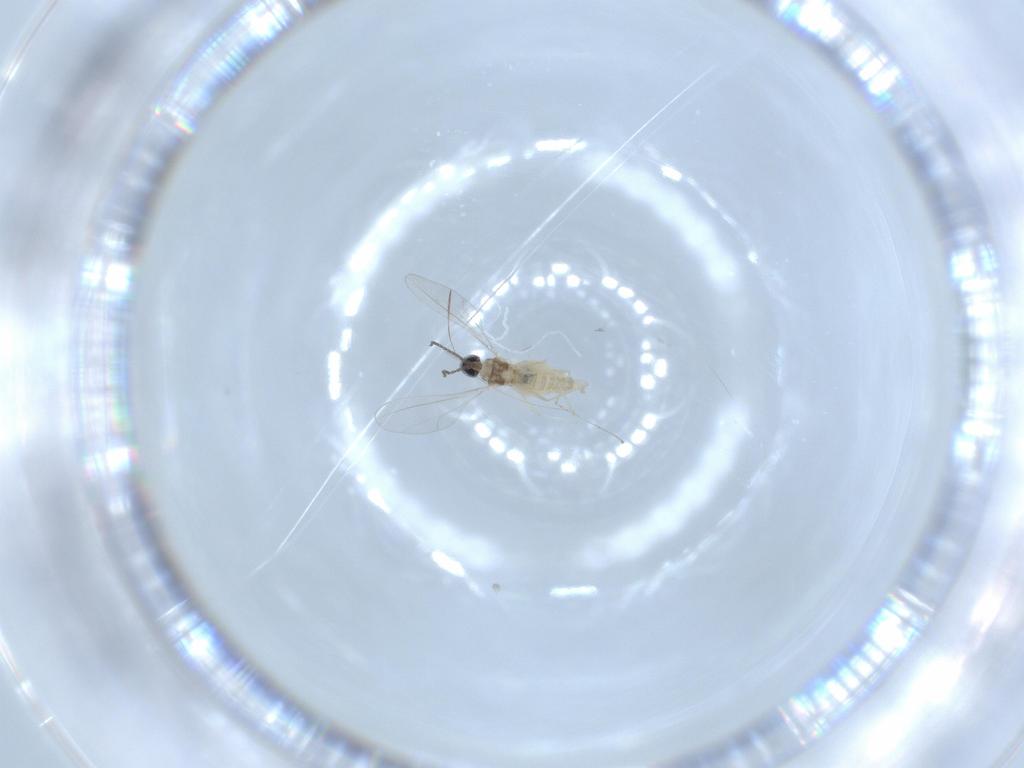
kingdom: Animalia
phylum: Arthropoda
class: Insecta
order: Diptera
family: Cecidomyiidae
